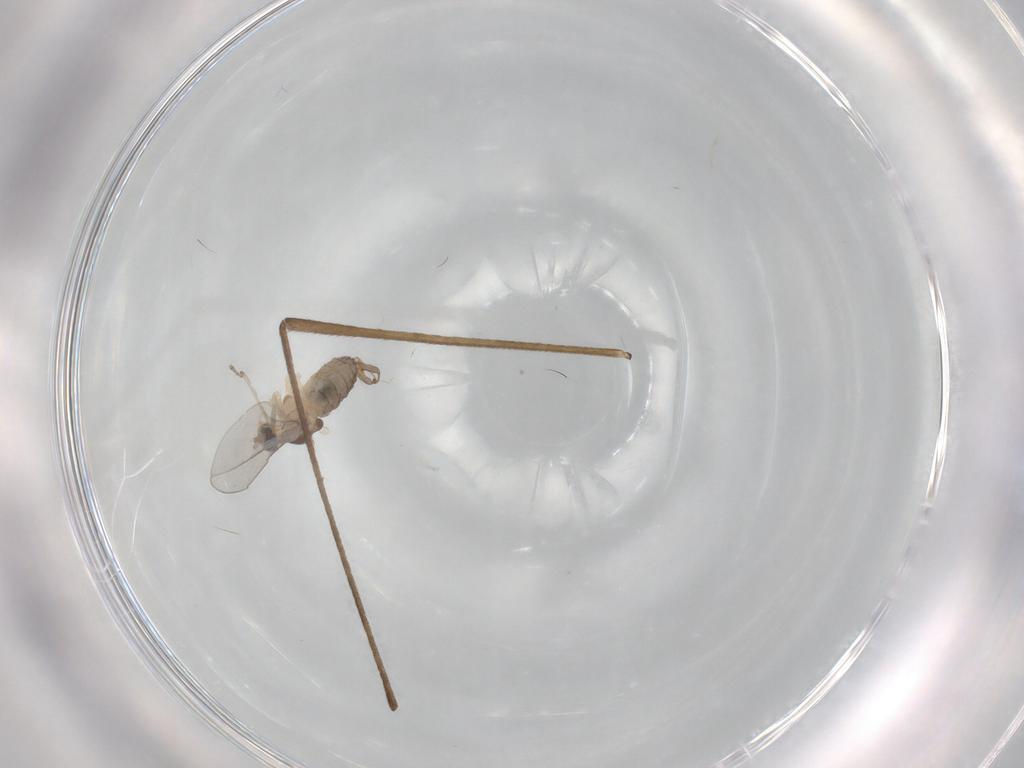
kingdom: Animalia
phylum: Arthropoda
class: Insecta
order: Diptera
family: Cecidomyiidae
